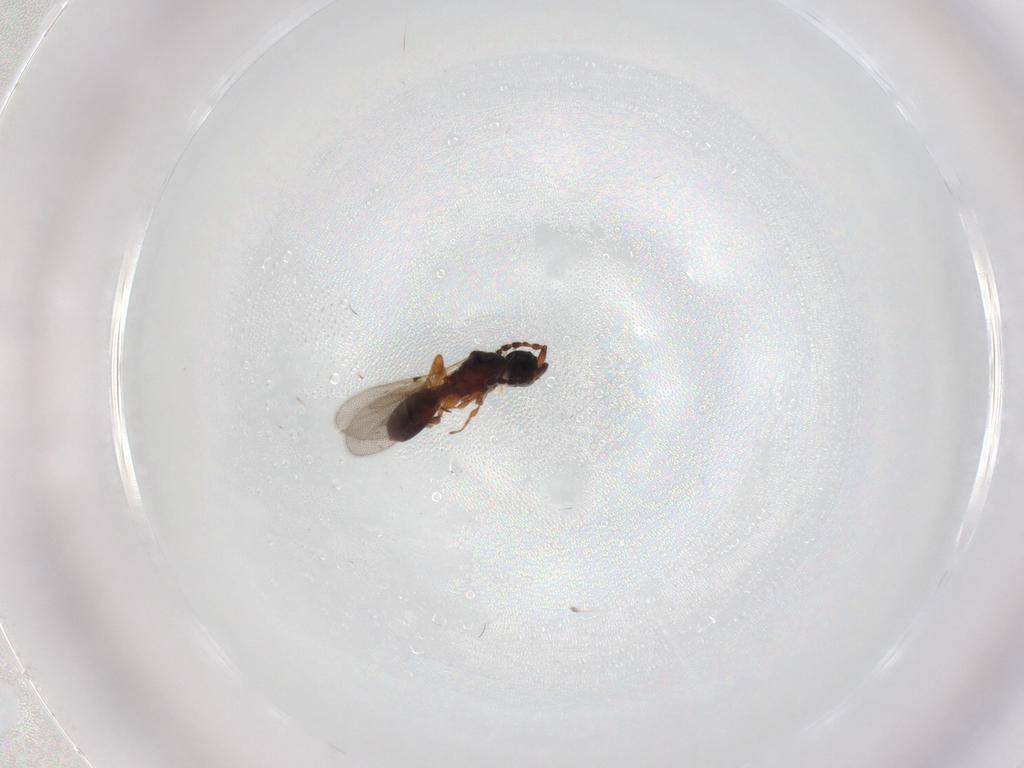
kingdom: Animalia
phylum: Arthropoda
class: Insecta
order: Hymenoptera
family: Diapriidae
